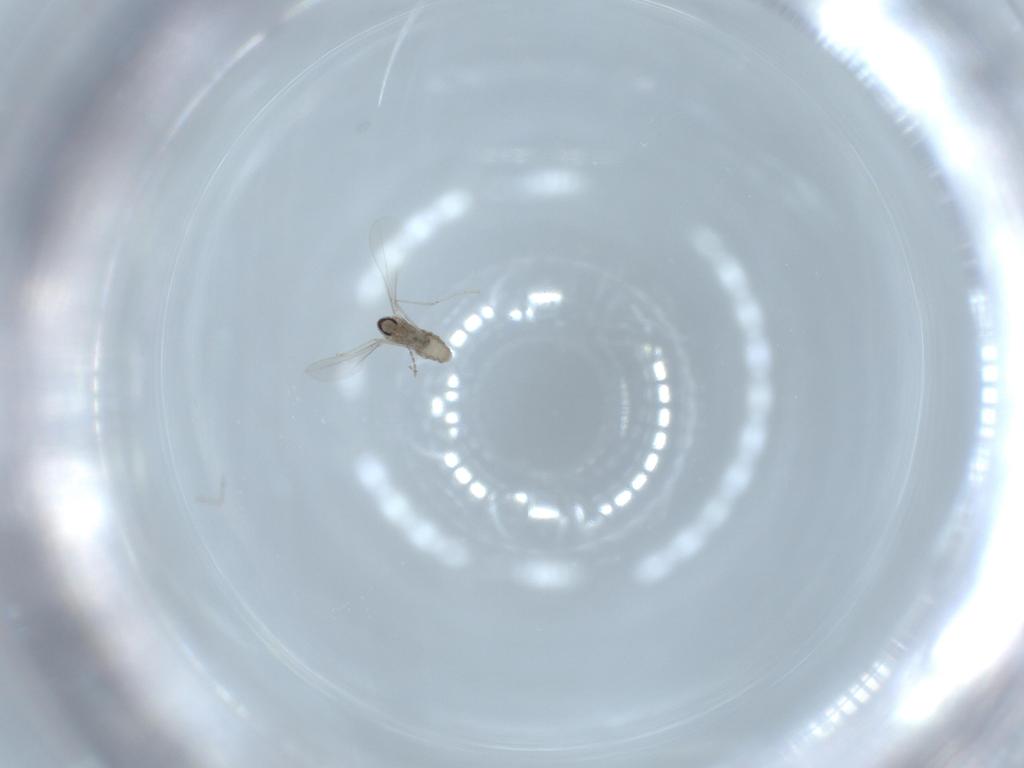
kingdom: Animalia
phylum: Arthropoda
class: Insecta
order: Diptera
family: Cecidomyiidae
